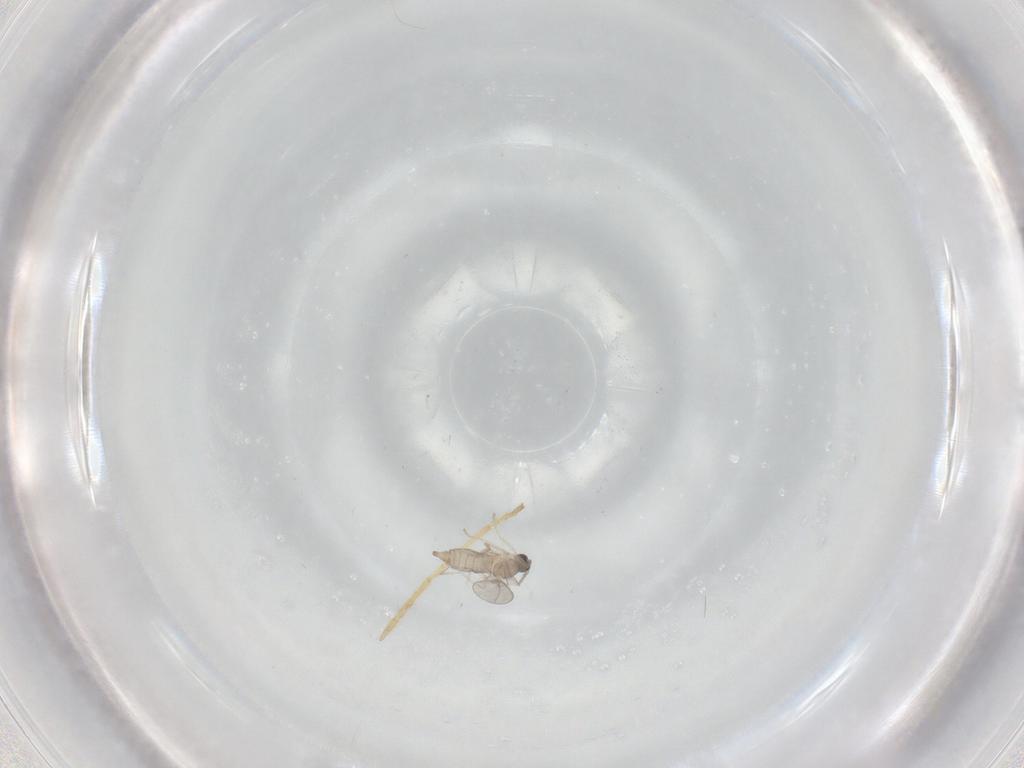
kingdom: Animalia
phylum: Arthropoda
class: Insecta
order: Diptera
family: Cecidomyiidae
